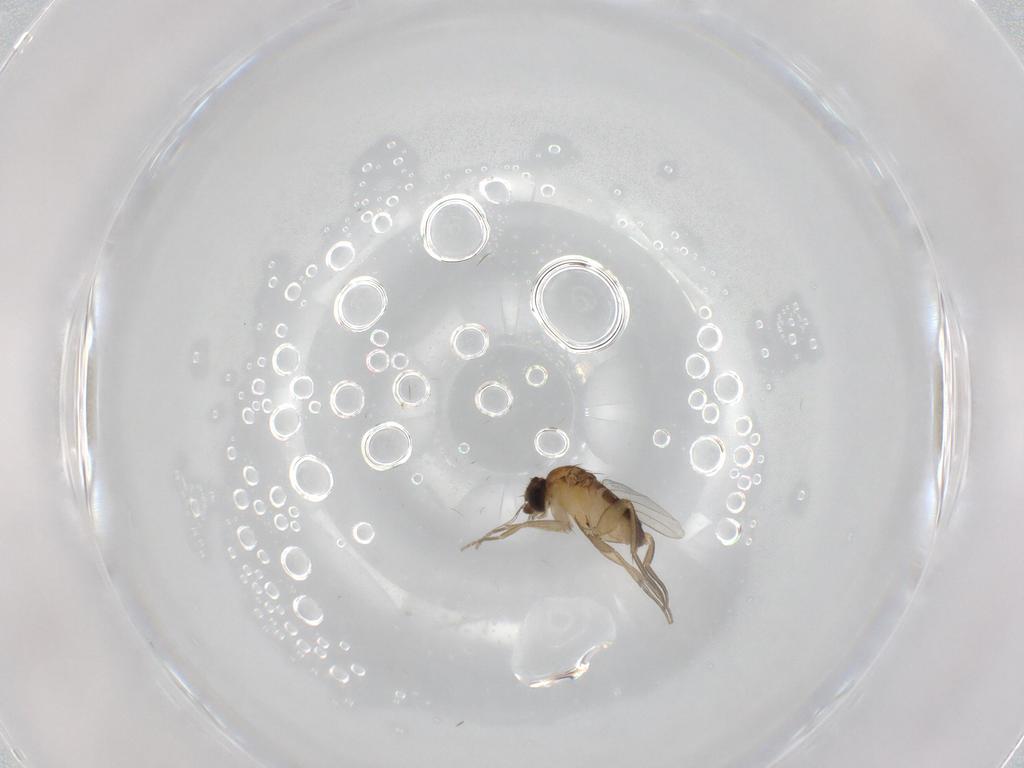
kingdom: Animalia
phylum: Arthropoda
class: Insecta
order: Diptera
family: Phoridae
